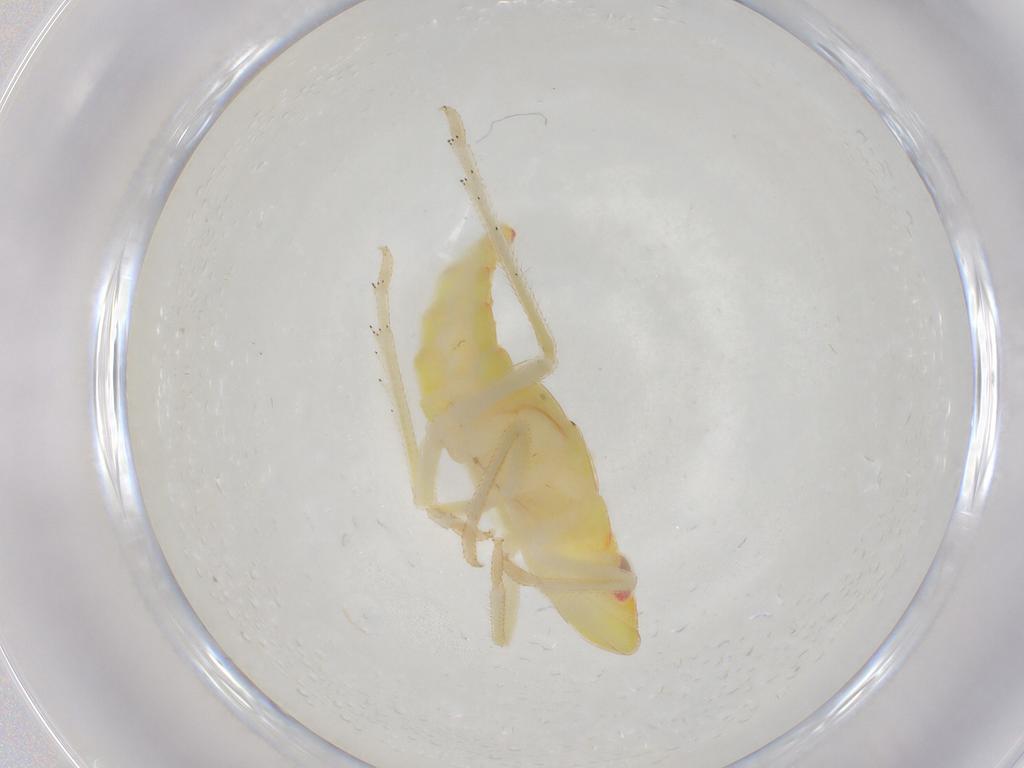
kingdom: Animalia
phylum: Arthropoda
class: Insecta
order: Hemiptera
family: Tropiduchidae
